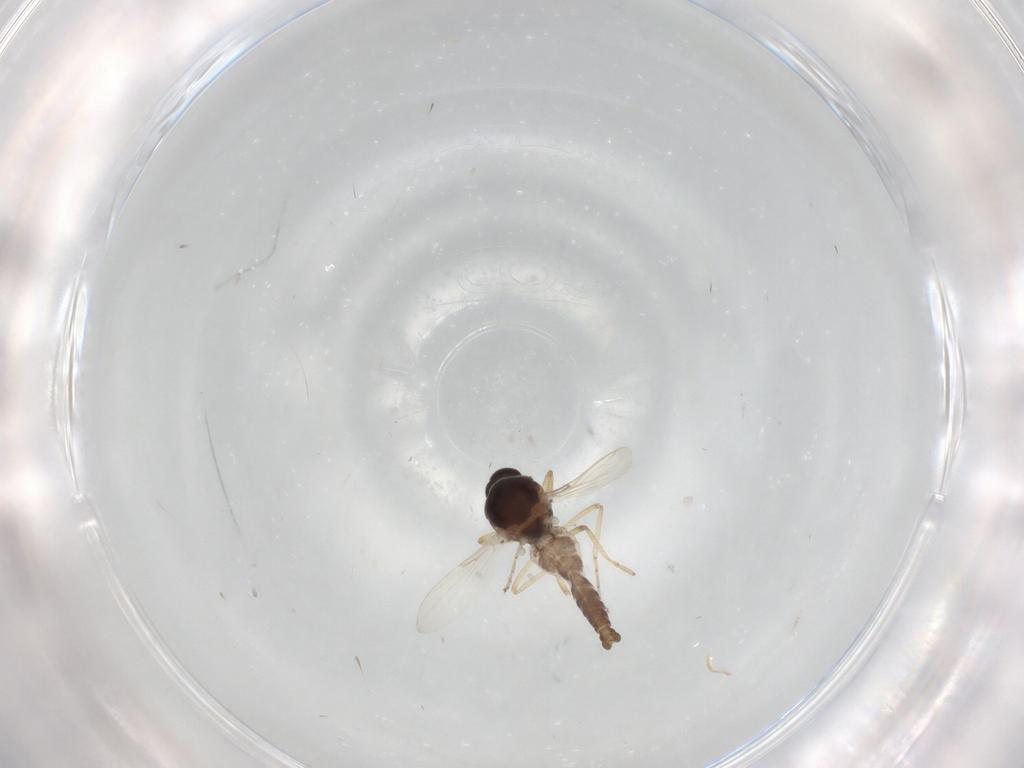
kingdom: Animalia
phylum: Arthropoda
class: Insecta
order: Diptera
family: Ceratopogonidae
